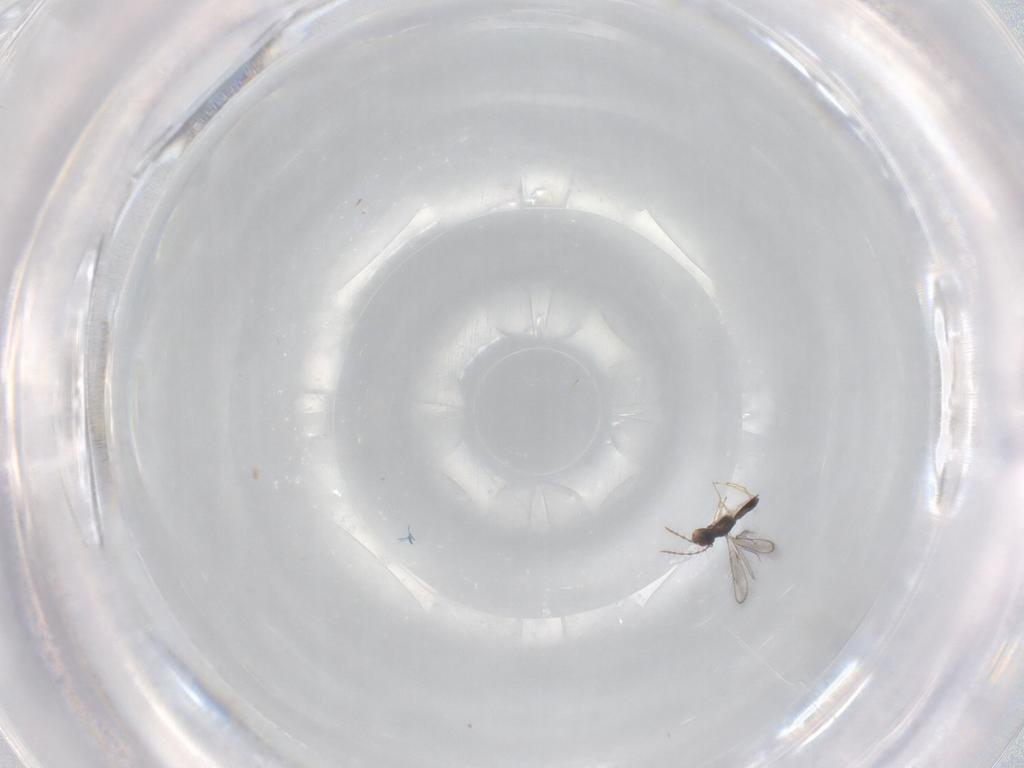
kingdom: Animalia
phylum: Arthropoda
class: Insecta
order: Hymenoptera
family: Pteromalidae
